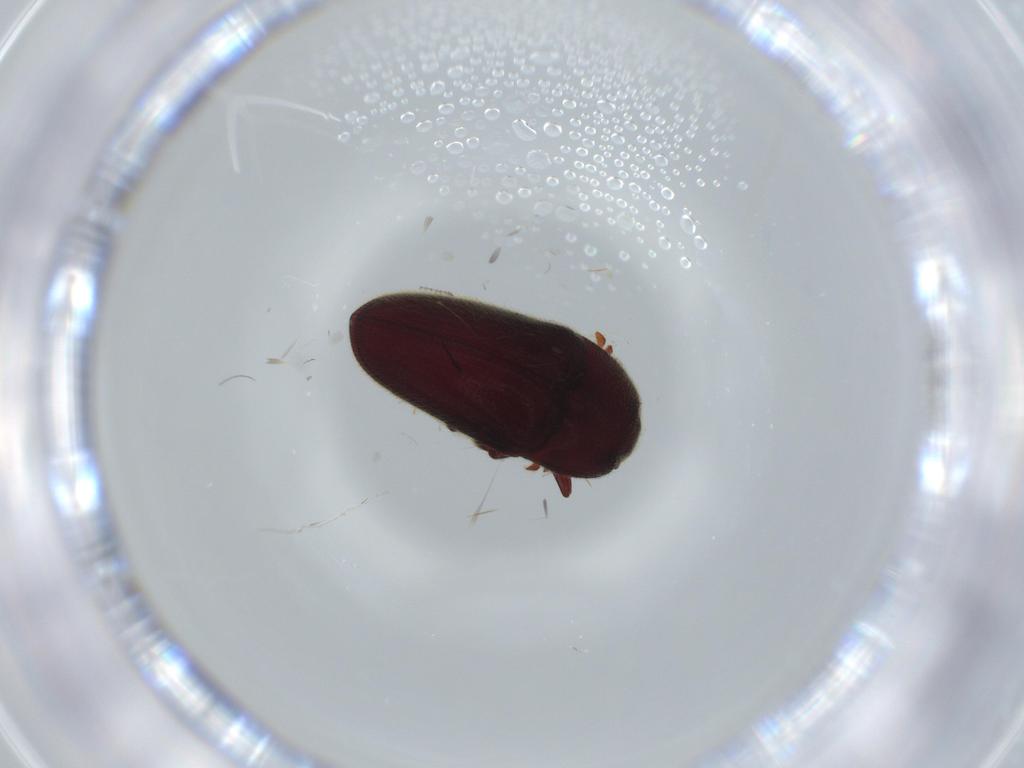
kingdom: Animalia
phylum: Arthropoda
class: Insecta
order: Coleoptera
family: Throscidae
